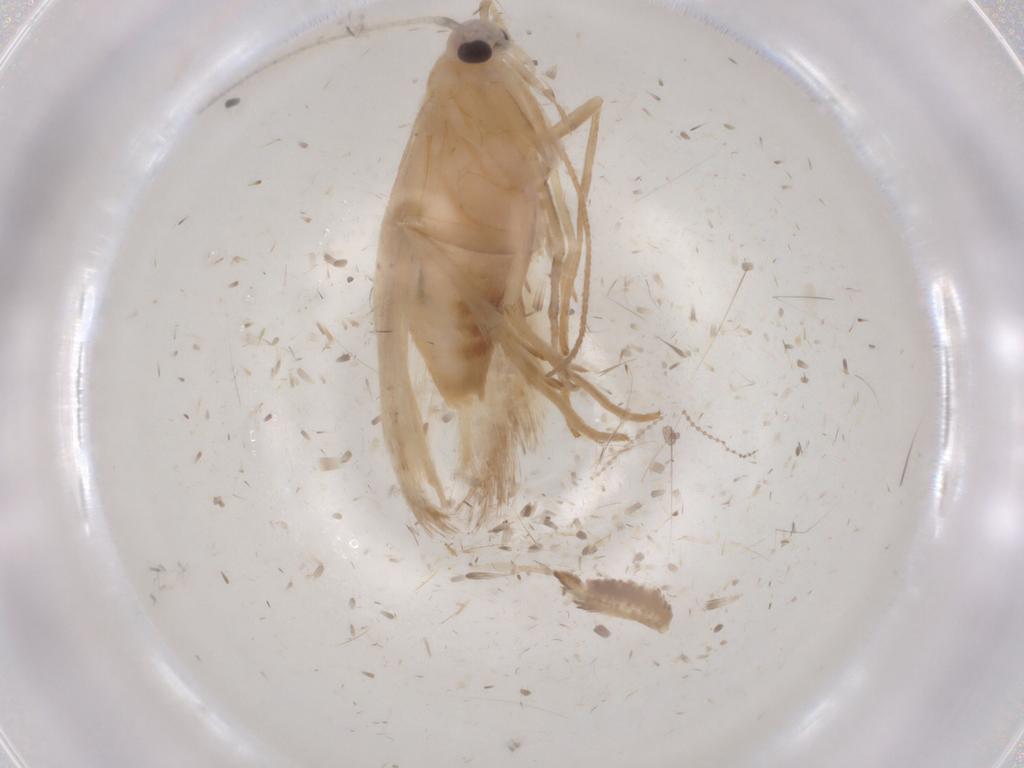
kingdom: Animalia
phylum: Arthropoda
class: Insecta
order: Lepidoptera
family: Xyloryctidae
